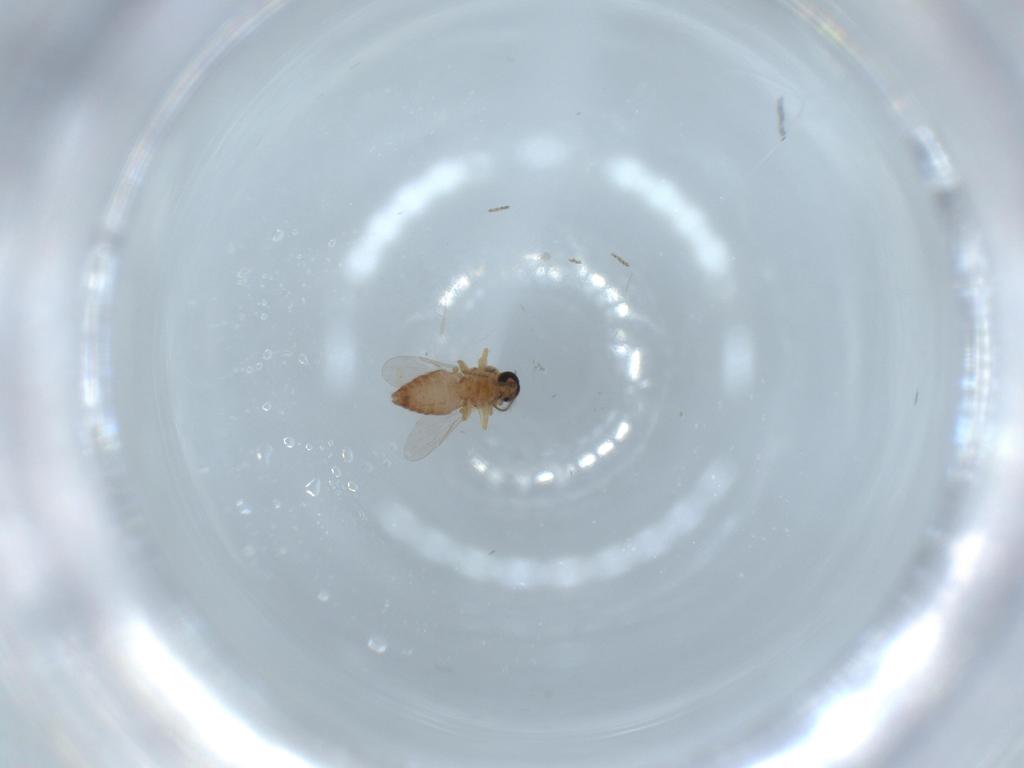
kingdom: Animalia
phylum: Arthropoda
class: Insecta
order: Diptera
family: Ceratopogonidae
